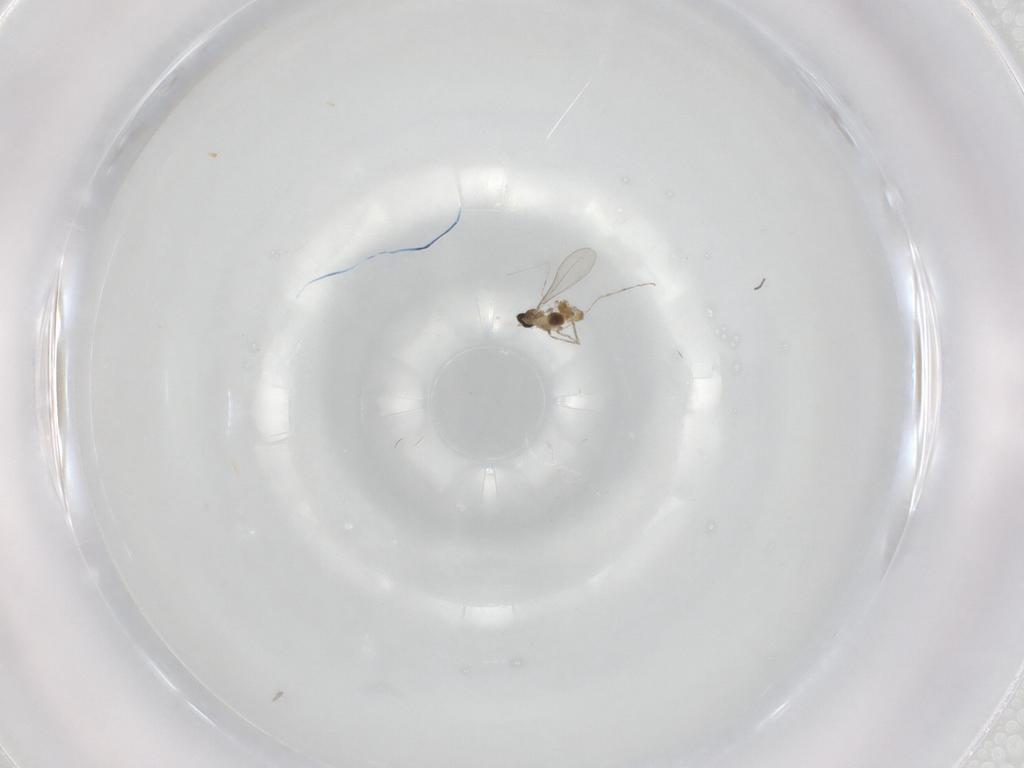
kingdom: Animalia
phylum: Arthropoda
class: Insecta
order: Diptera
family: Cecidomyiidae
